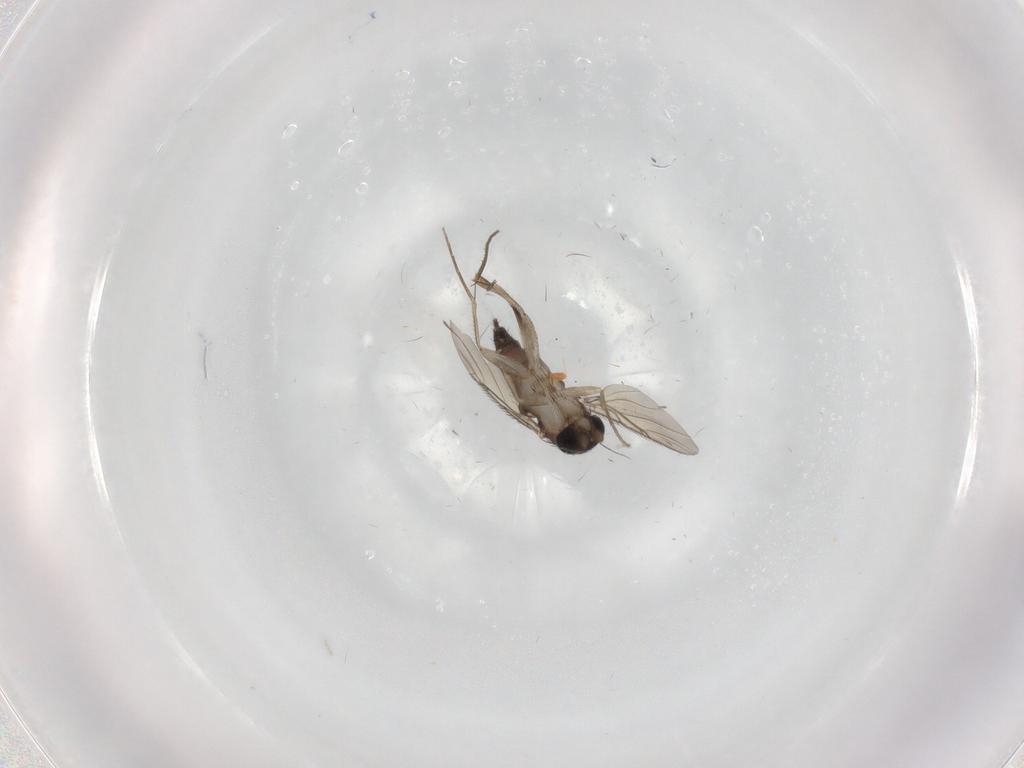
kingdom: Animalia
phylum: Arthropoda
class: Insecta
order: Diptera
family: Phoridae
